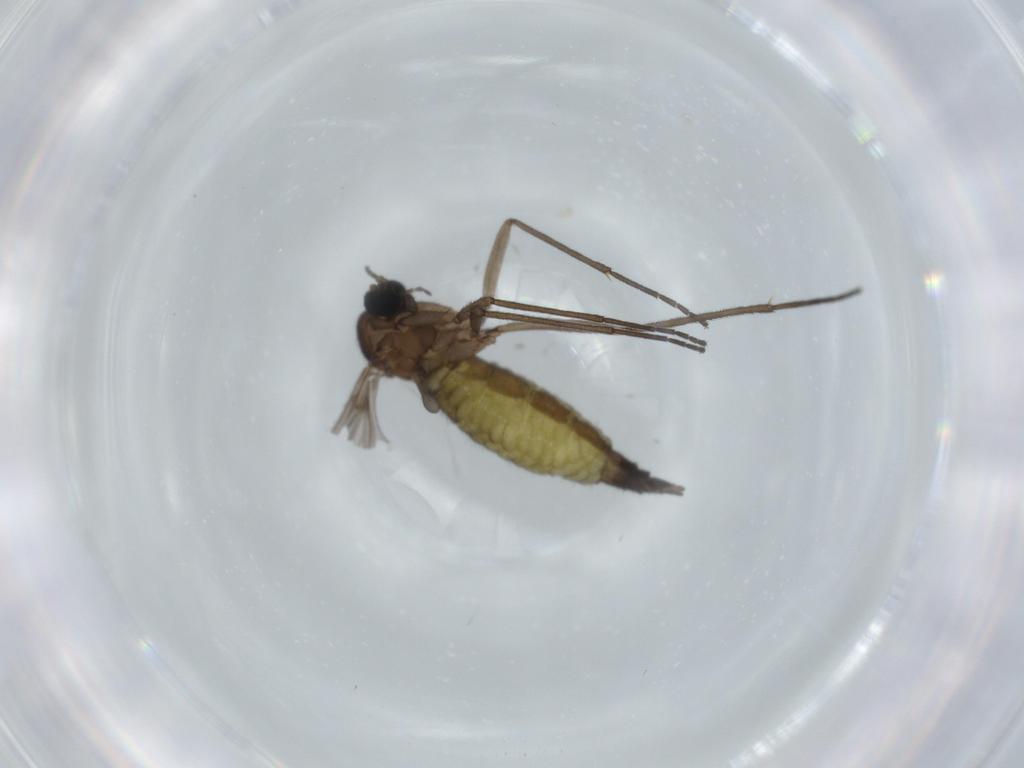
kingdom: Animalia
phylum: Arthropoda
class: Insecta
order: Diptera
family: Sciaridae
